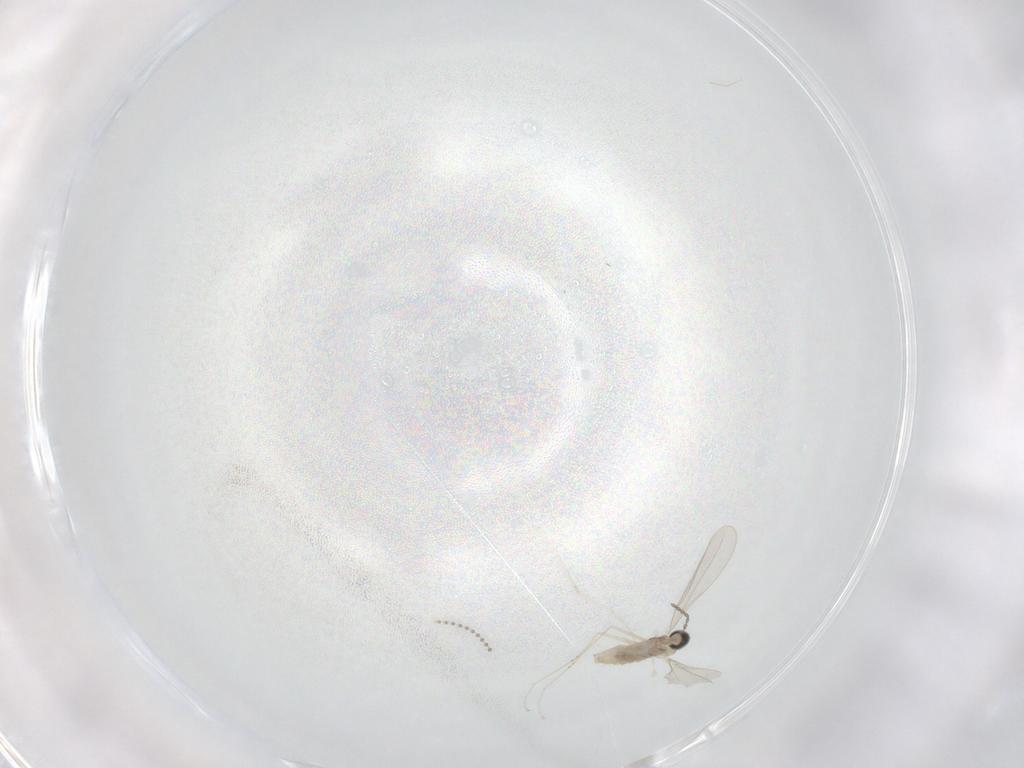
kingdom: Animalia
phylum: Arthropoda
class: Insecta
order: Diptera
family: Cecidomyiidae
